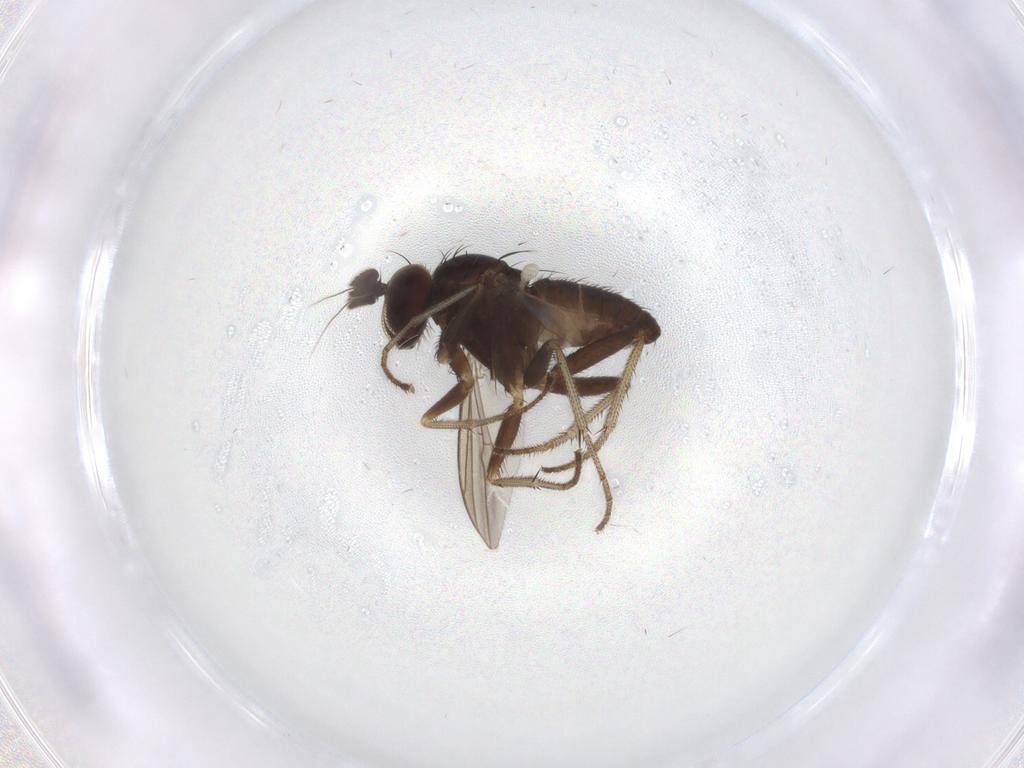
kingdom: Animalia
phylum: Arthropoda
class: Insecta
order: Diptera
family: Dolichopodidae
